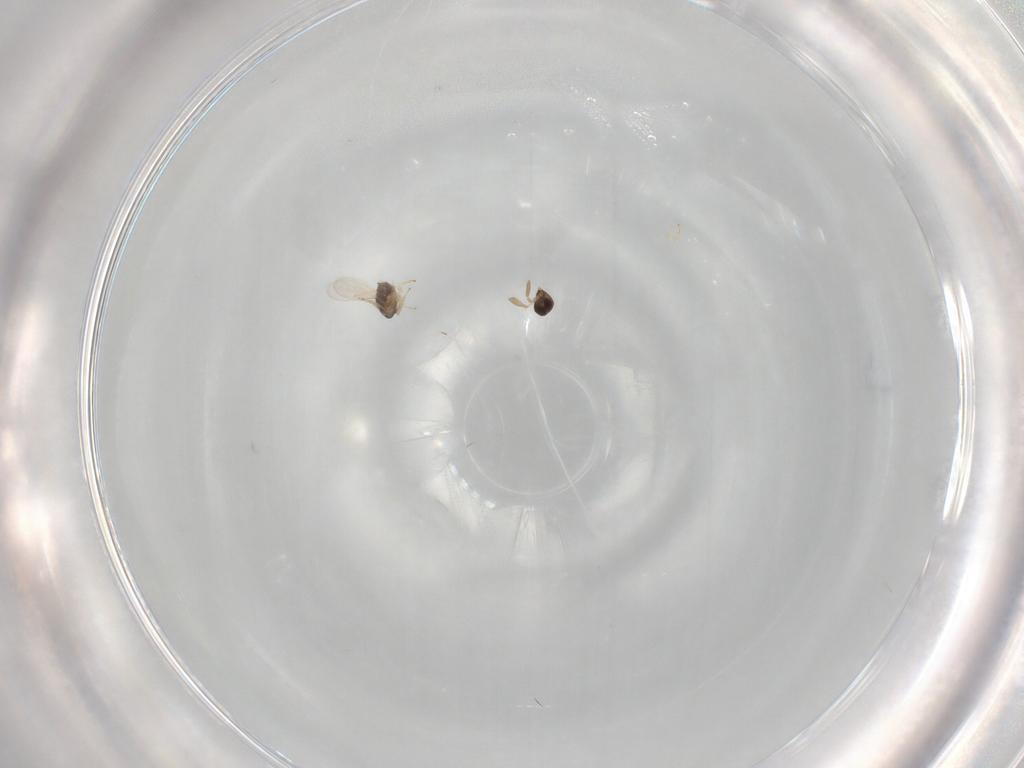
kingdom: Animalia
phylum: Arthropoda
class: Insecta
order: Hymenoptera
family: Encyrtidae
